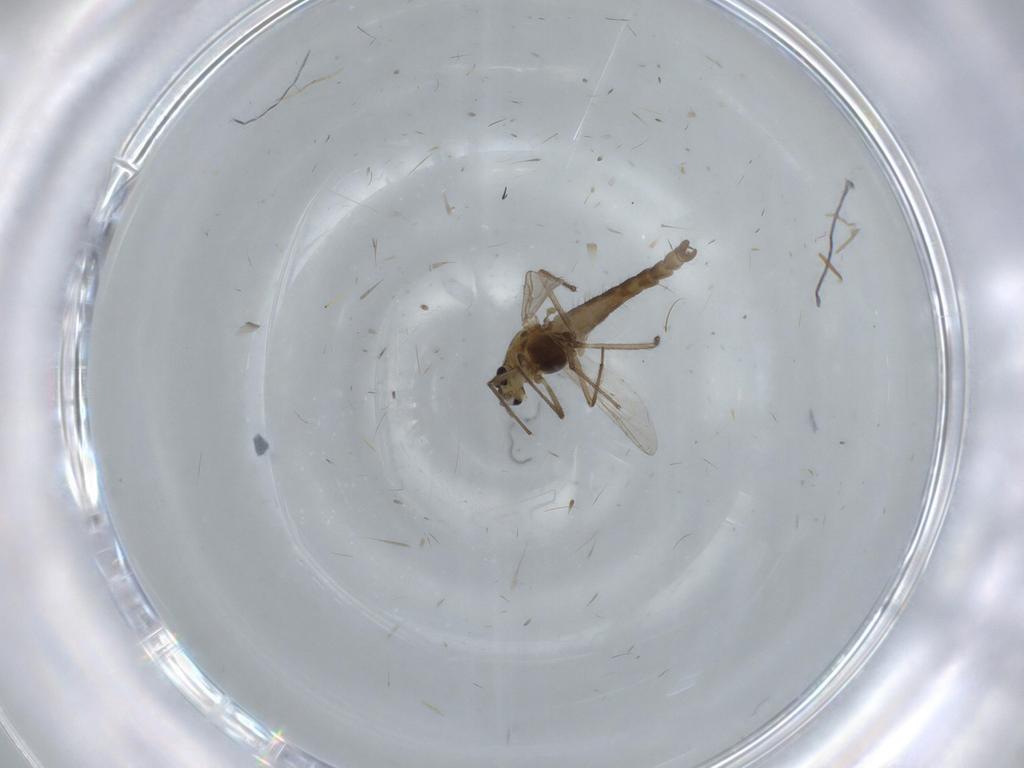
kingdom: Animalia
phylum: Arthropoda
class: Insecta
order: Diptera
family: Chironomidae
